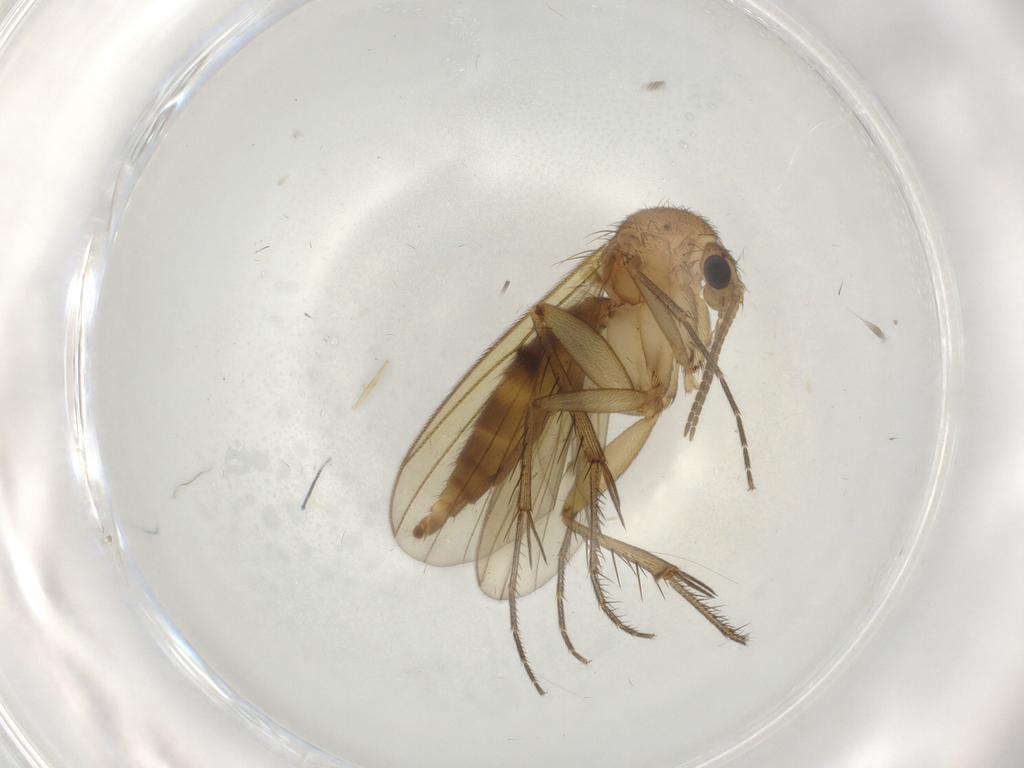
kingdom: Animalia
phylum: Arthropoda
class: Insecta
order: Diptera
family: Mycetophilidae
